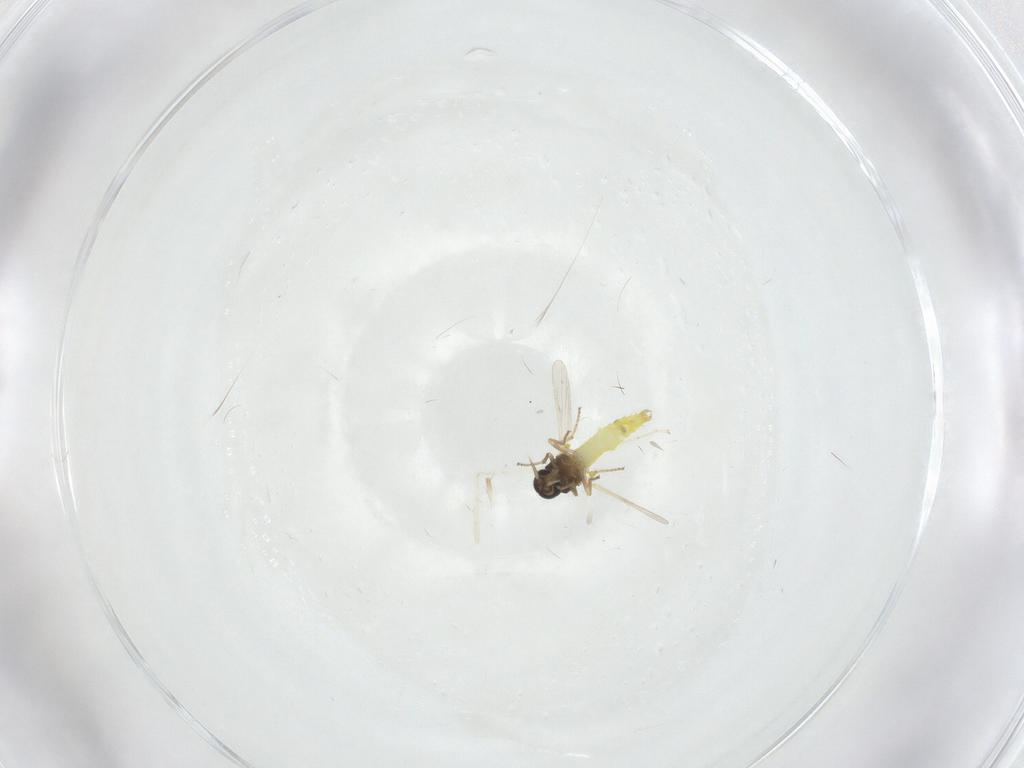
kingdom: Animalia
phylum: Arthropoda
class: Insecta
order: Diptera
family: Ceratopogonidae
